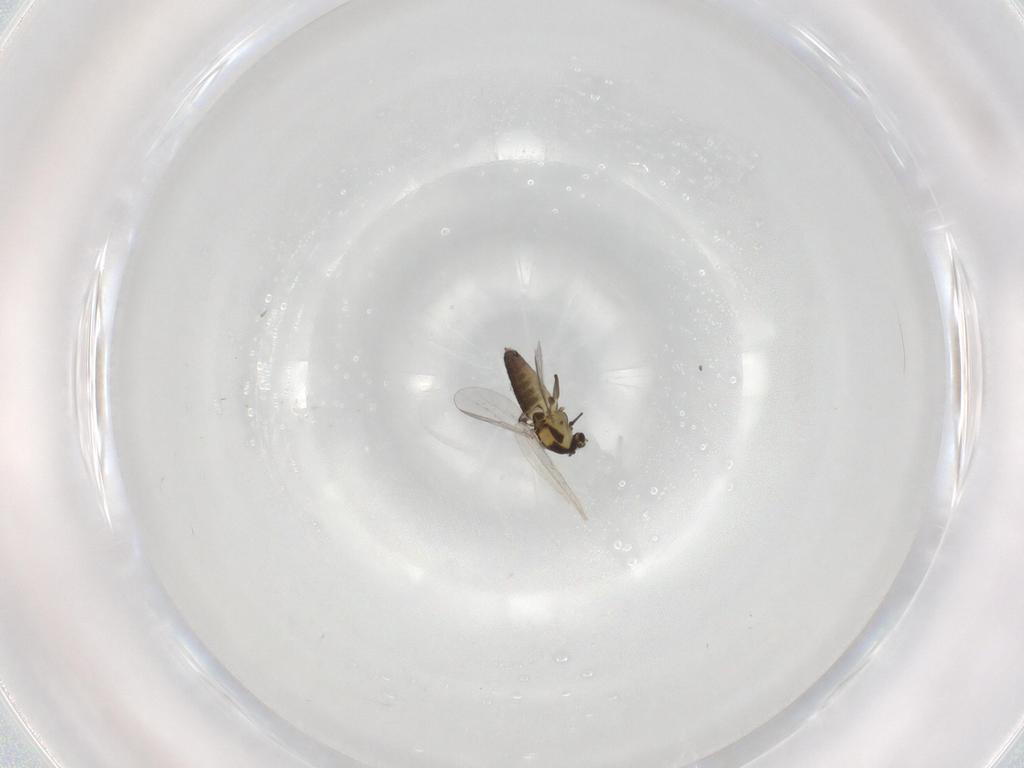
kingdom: Animalia
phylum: Arthropoda
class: Insecta
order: Diptera
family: Chironomidae
